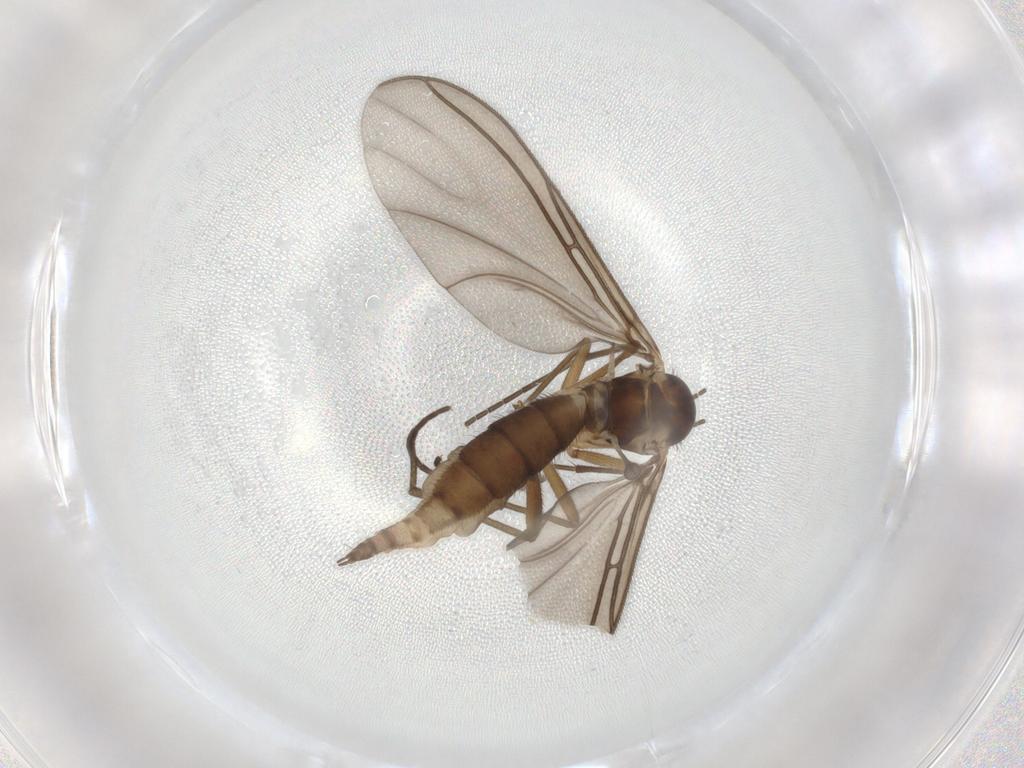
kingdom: Animalia
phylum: Arthropoda
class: Insecta
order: Diptera
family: Sciaridae
